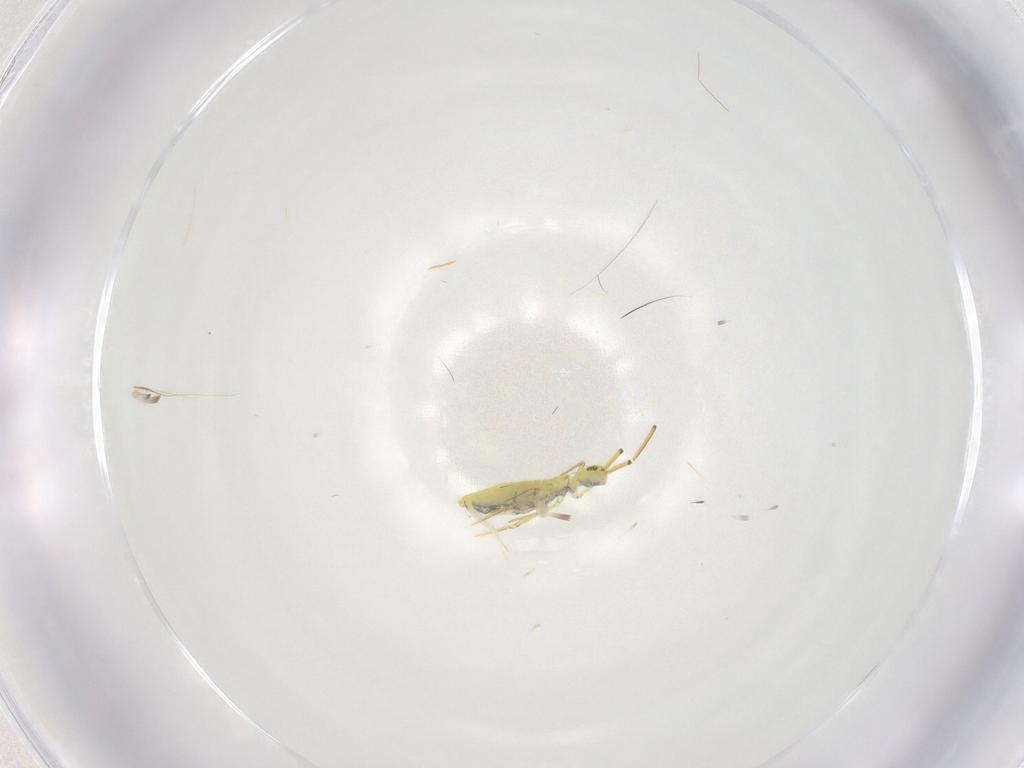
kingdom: Animalia
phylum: Arthropoda
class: Collembola
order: Entomobryomorpha
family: Paronellidae
